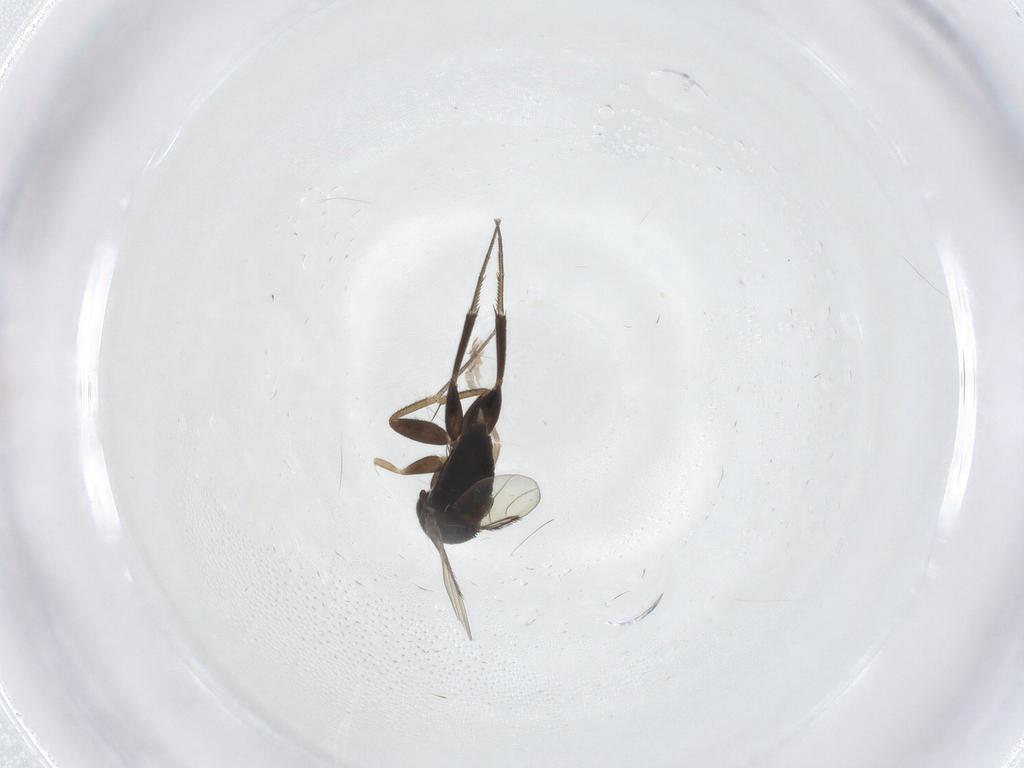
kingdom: Animalia
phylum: Arthropoda
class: Insecta
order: Diptera
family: Phoridae
